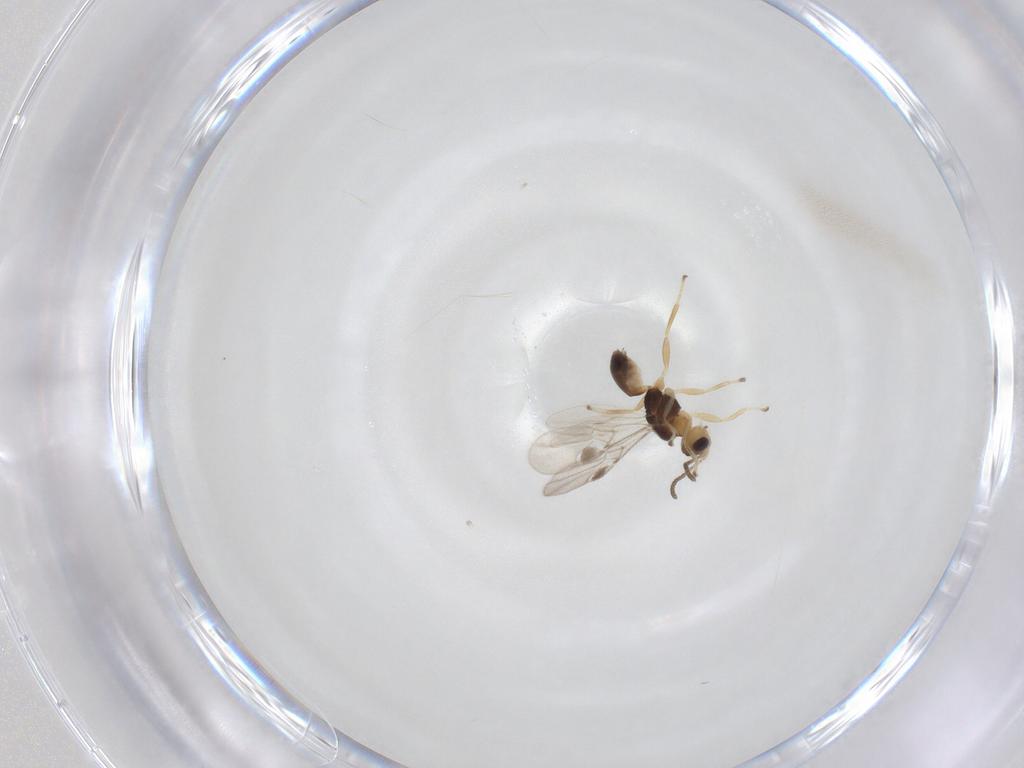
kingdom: Animalia
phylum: Arthropoda
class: Insecta
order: Hymenoptera
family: Braconidae
